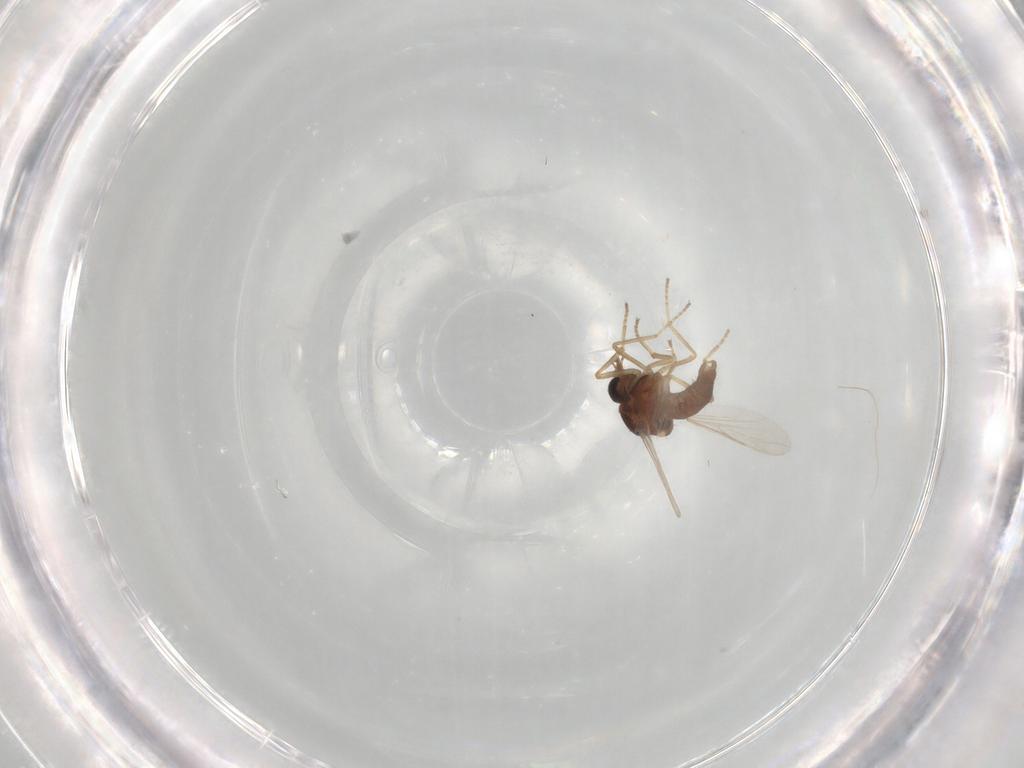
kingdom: Animalia
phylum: Arthropoda
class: Insecta
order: Diptera
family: Ceratopogonidae
